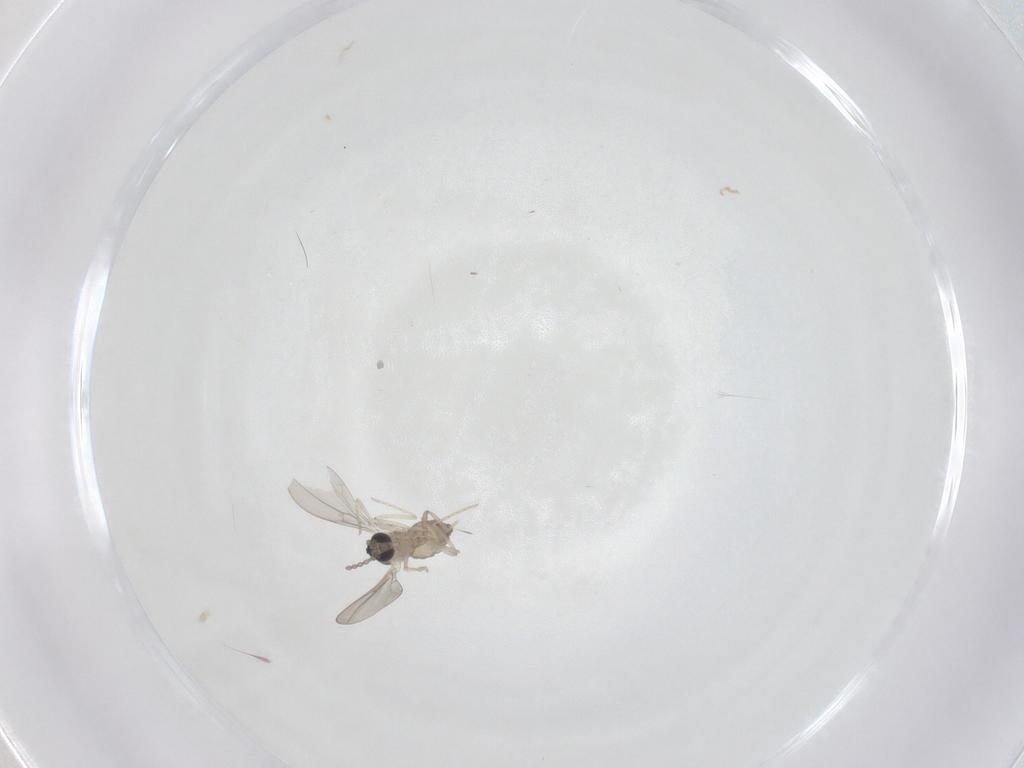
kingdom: Animalia
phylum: Arthropoda
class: Insecta
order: Diptera
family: Cecidomyiidae
